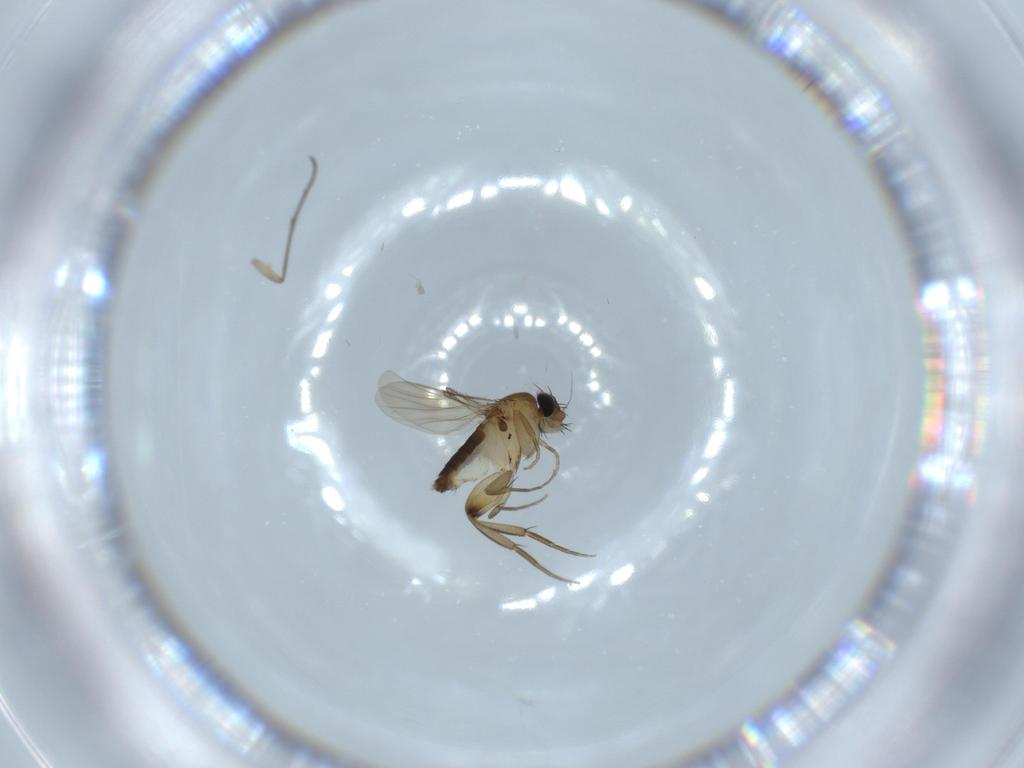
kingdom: Animalia
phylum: Arthropoda
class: Insecta
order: Diptera
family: Phoridae
